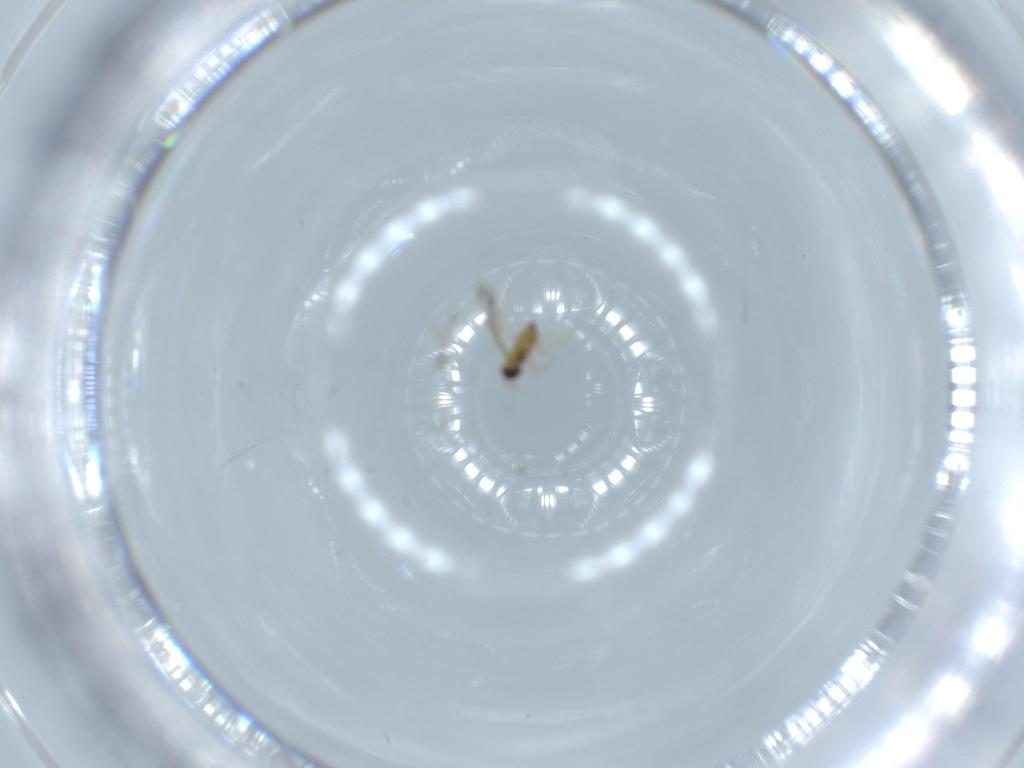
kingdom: Animalia
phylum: Arthropoda
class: Insecta
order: Hymenoptera
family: Trichogrammatidae
